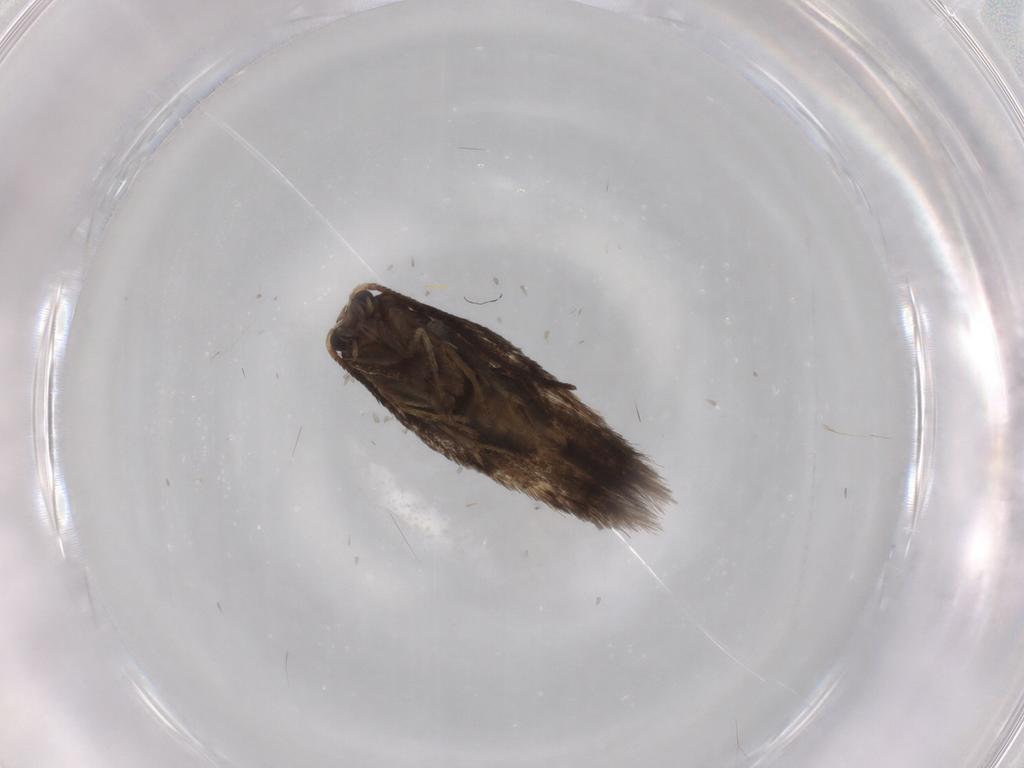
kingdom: Animalia
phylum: Arthropoda
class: Insecta
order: Lepidoptera
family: Nepticulidae
